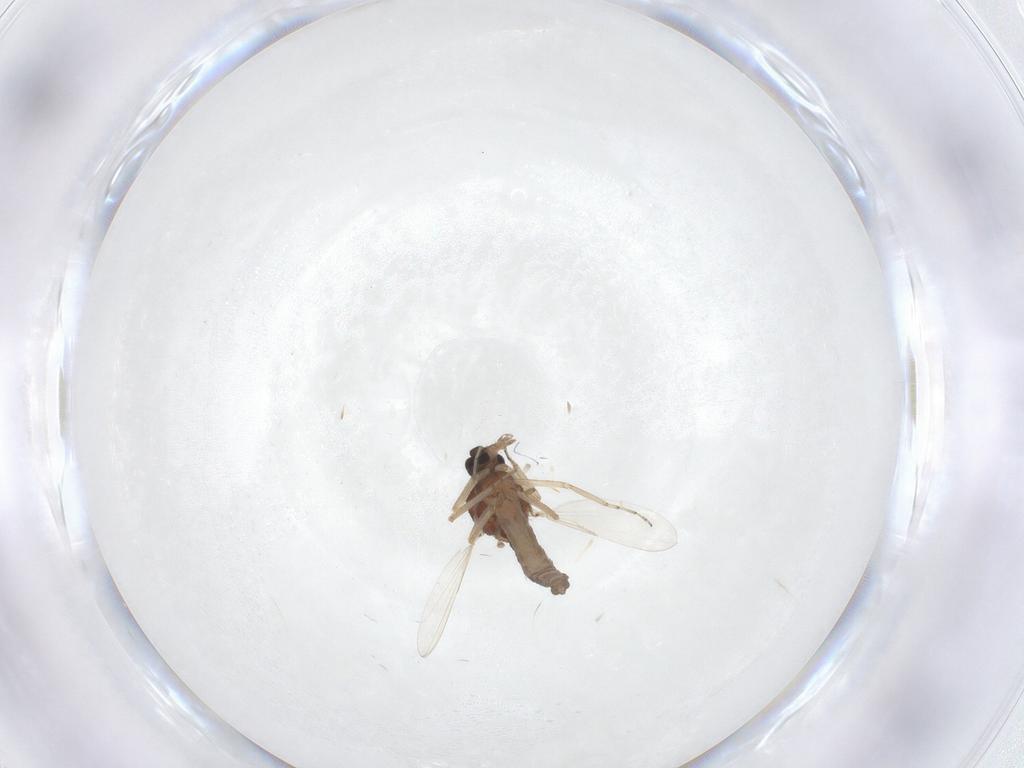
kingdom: Animalia
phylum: Arthropoda
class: Insecta
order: Diptera
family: Ceratopogonidae
